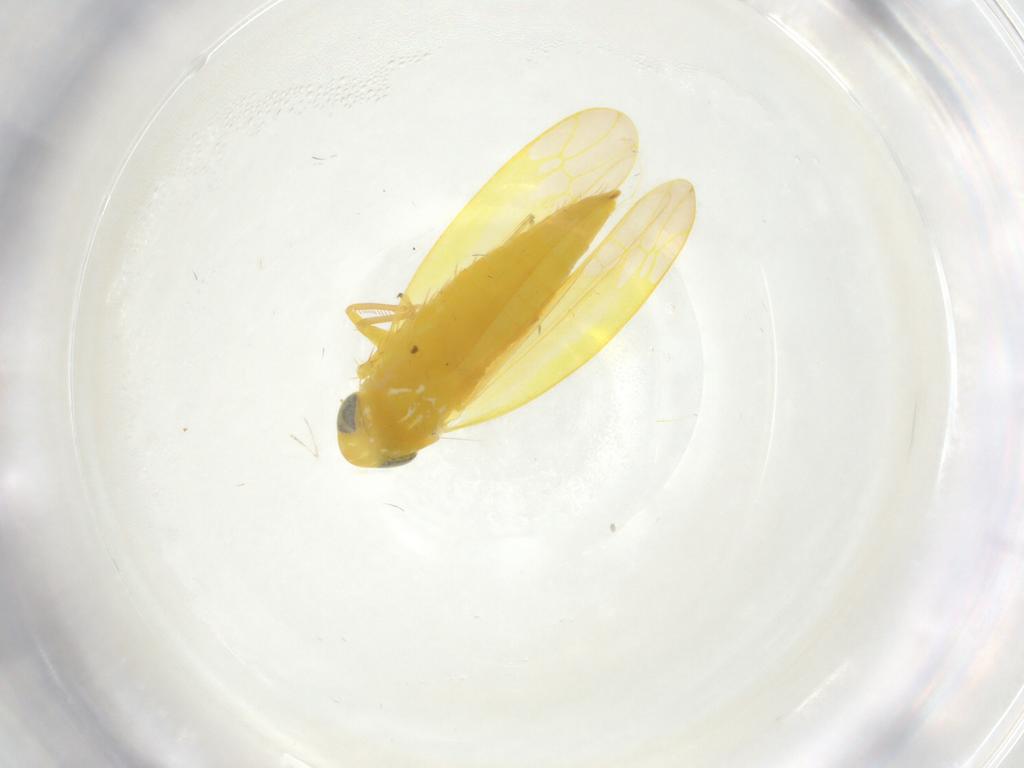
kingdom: Animalia
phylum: Arthropoda
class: Insecta
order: Hemiptera
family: Cicadellidae
